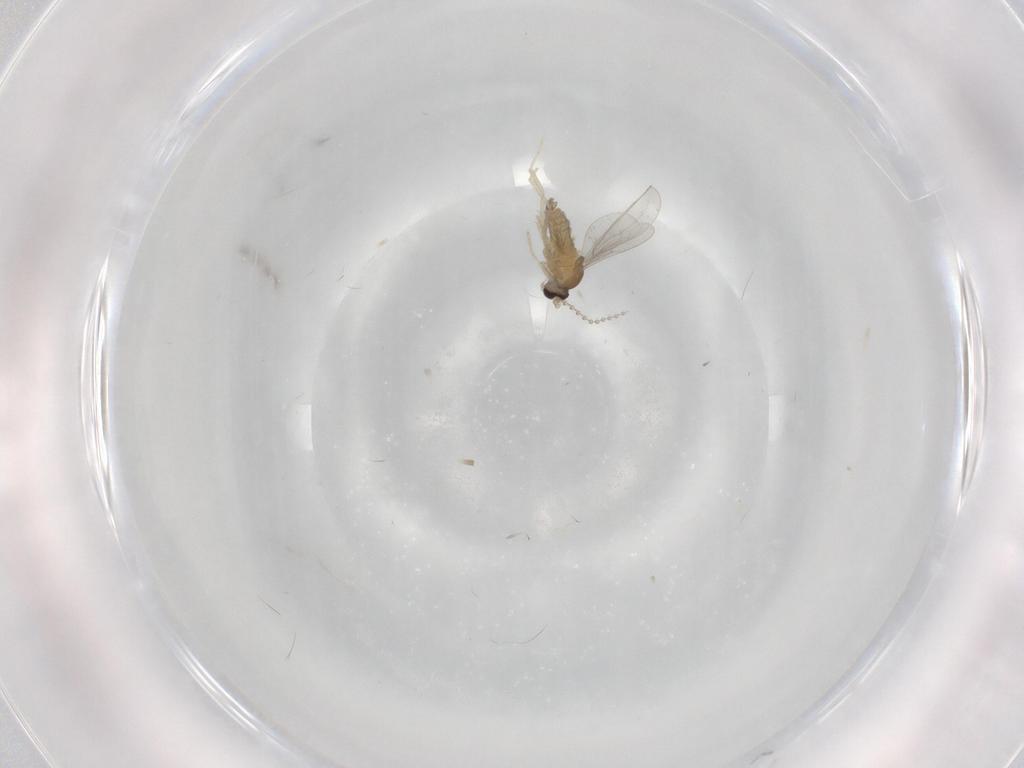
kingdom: Animalia
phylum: Arthropoda
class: Insecta
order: Diptera
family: Cecidomyiidae
